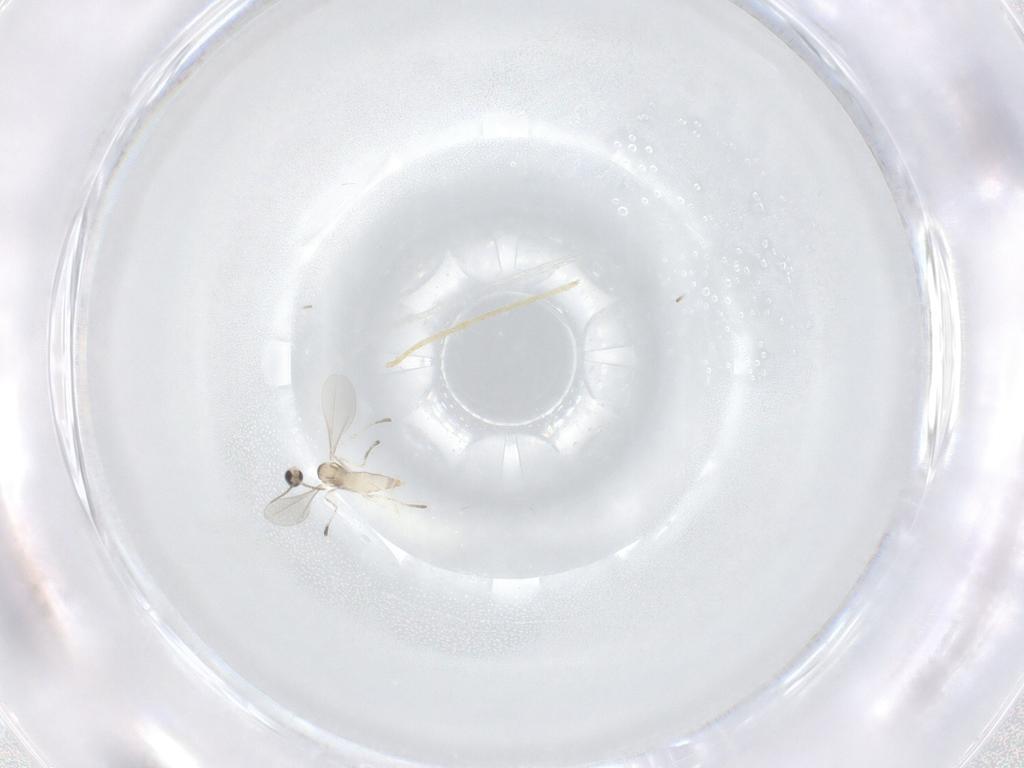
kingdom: Animalia
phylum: Arthropoda
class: Insecta
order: Diptera
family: Cecidomyiidae
